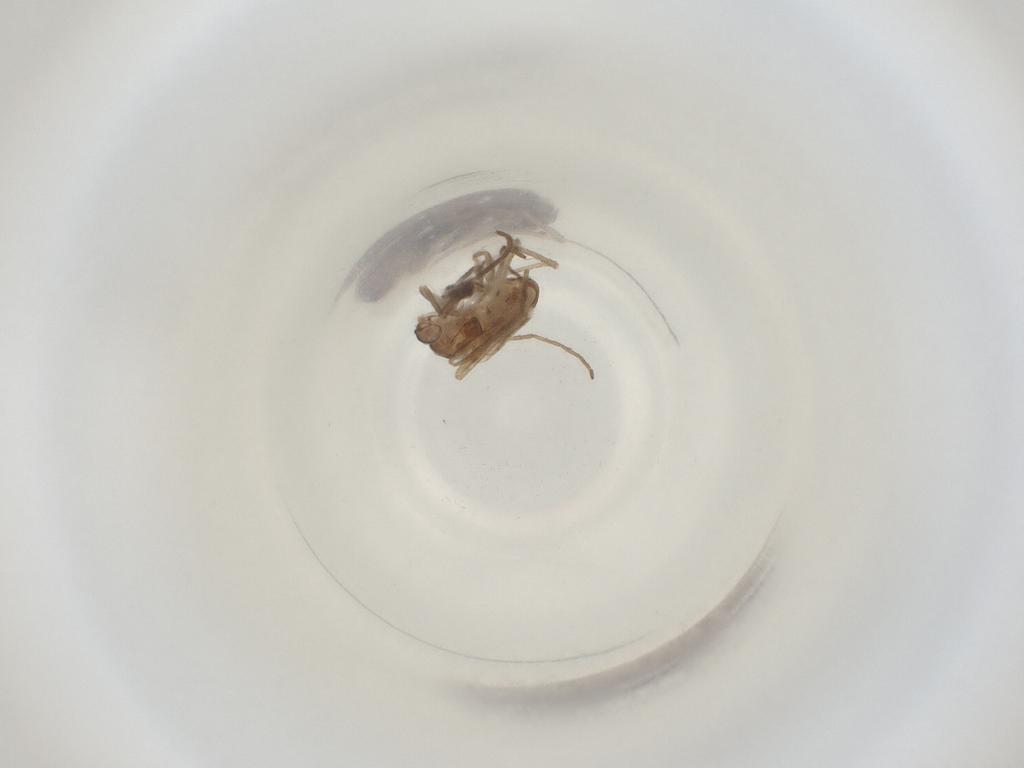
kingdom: Animalia
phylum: Arthropoda
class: Insecta
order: Diptera
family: Cecidomyiidae
